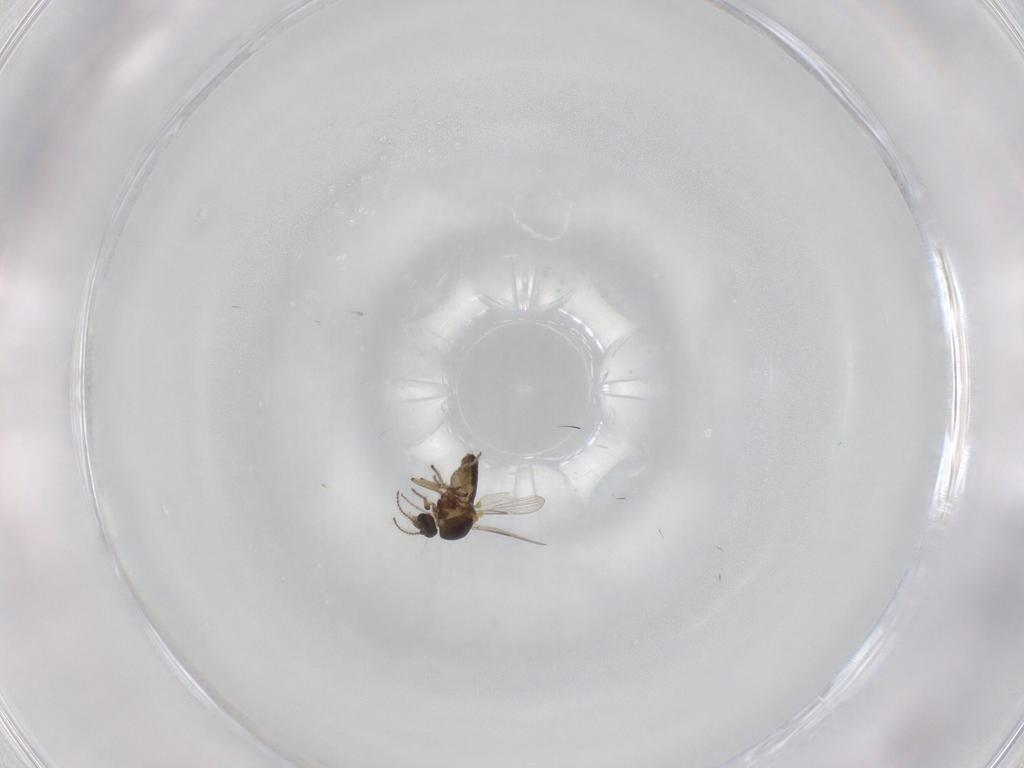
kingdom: Animalia
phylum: Arthropoda
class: Insecta
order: Diptera
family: Ceratopogonidae
